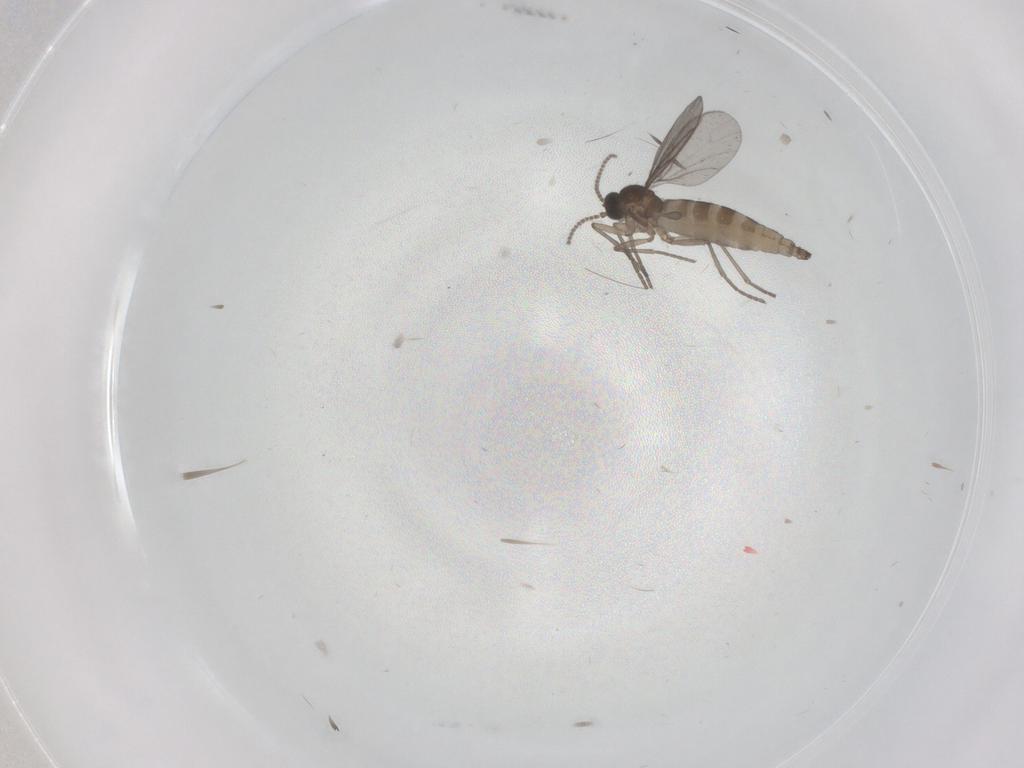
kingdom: Animalia
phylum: Arthropoda
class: Insecta
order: Diptera
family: Phoridae
